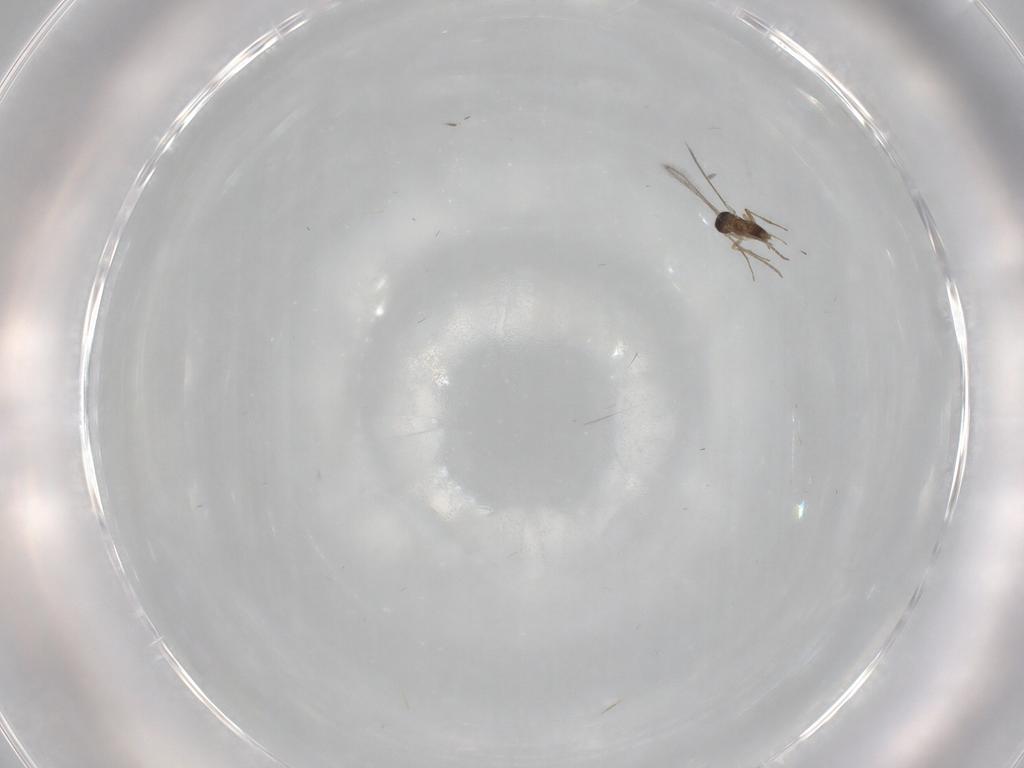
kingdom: Animalia
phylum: Arthropoda
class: Insecta
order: Hymenoptera
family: Mymaridae
